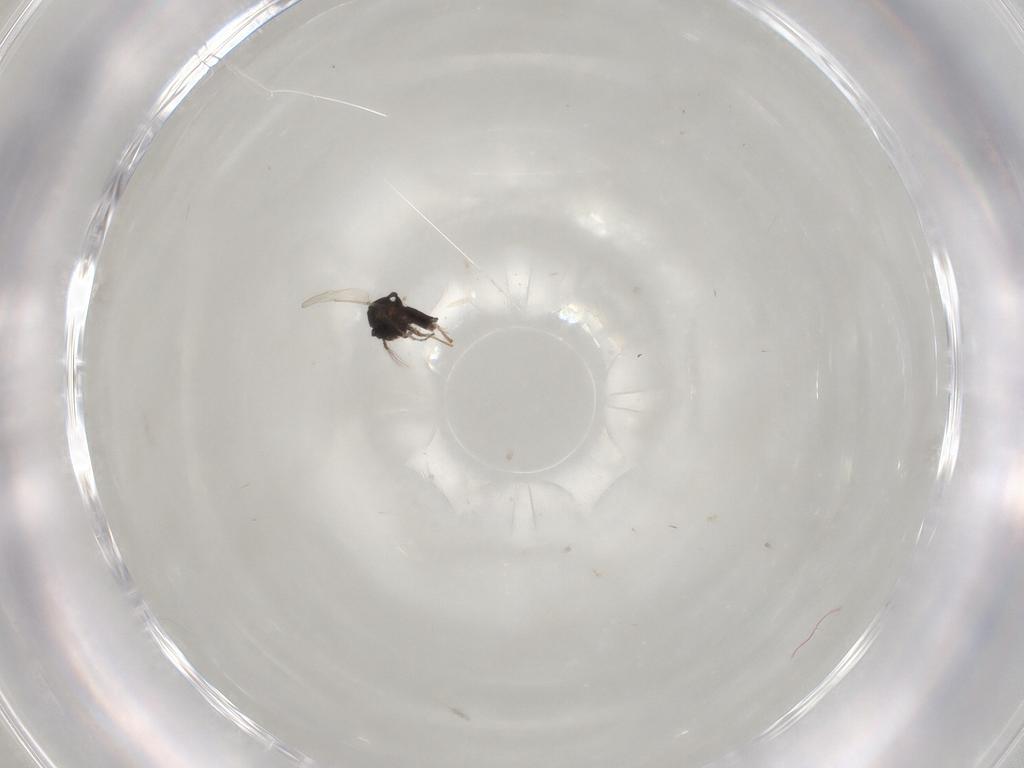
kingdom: Animalia
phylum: Arthropoda
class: Insecta
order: Diptera
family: Ceratopogonidae
